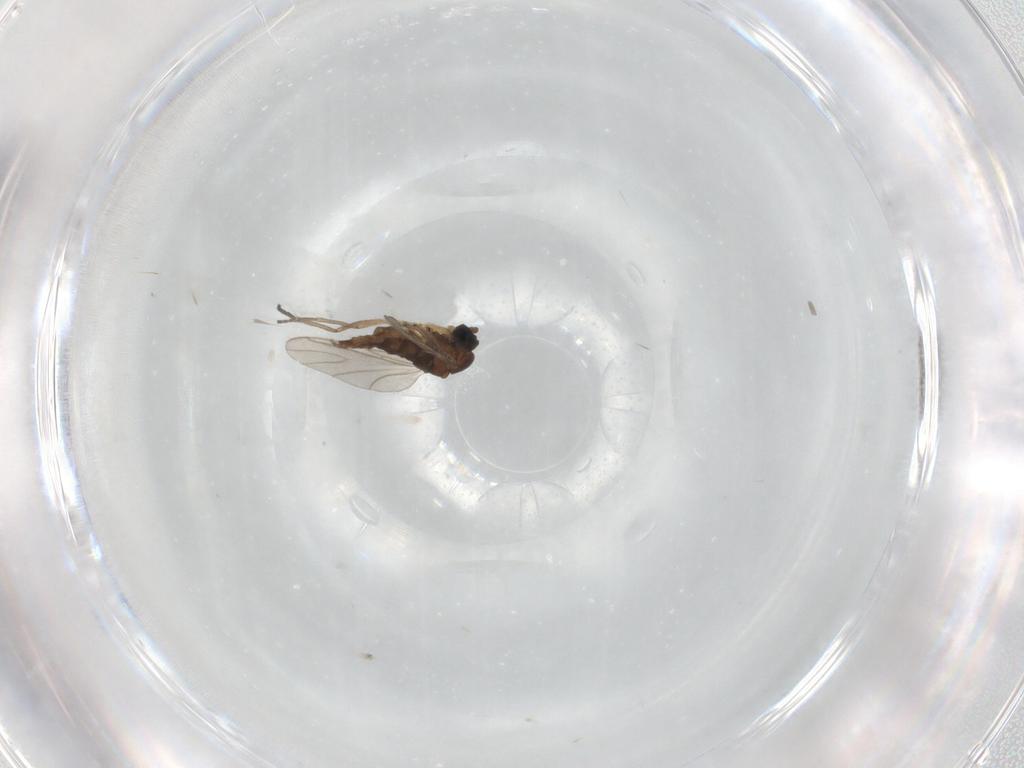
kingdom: Animalia
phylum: Arthropoda
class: Insecta
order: Diptera
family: Sciaridae
